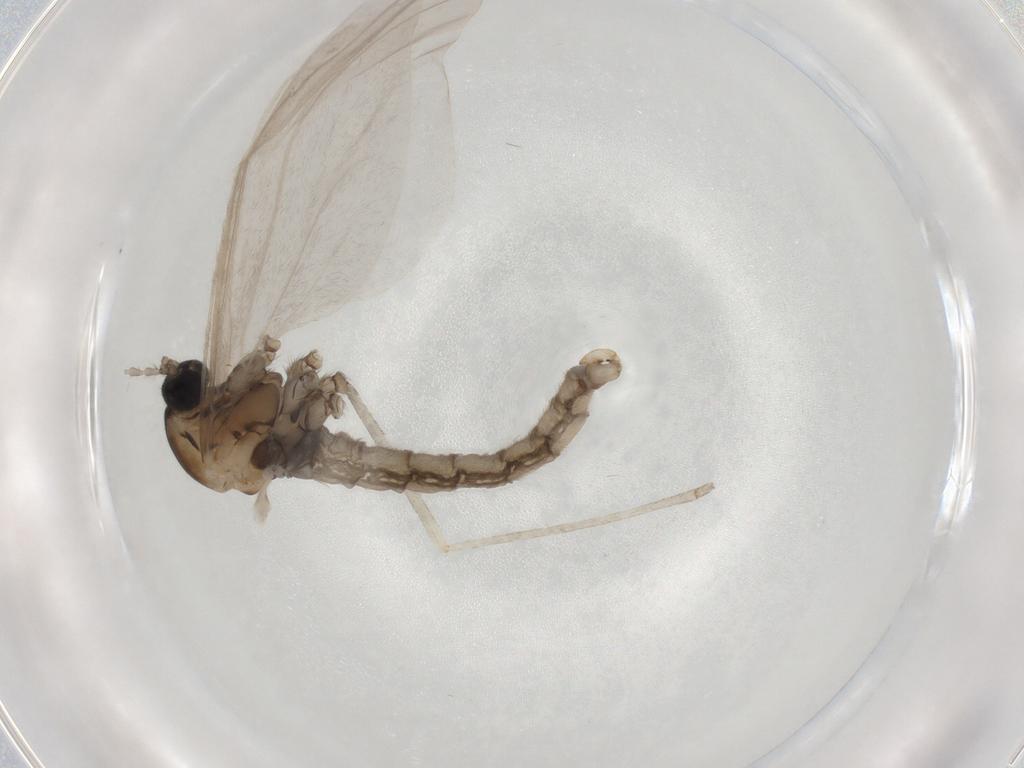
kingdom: Animalia
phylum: Arthropoda
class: Insecta
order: Diptera
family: Cecidomyiidae
